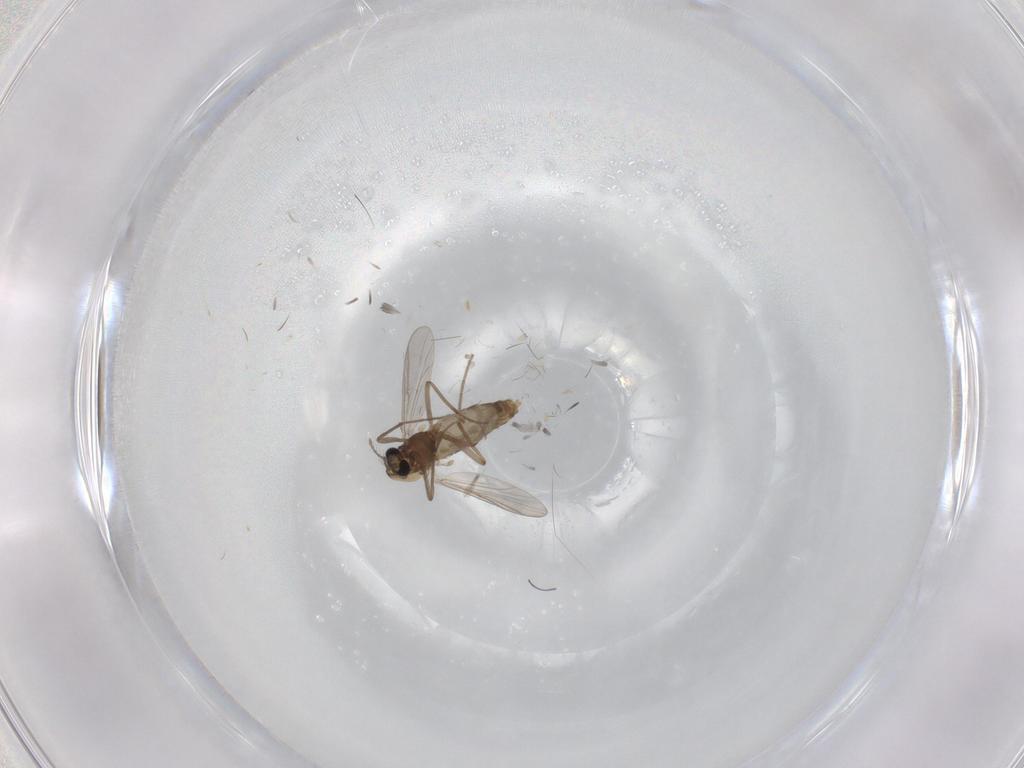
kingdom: Animalia
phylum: Arthropoda
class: Insecta
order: Diptera
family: Chironomidae
